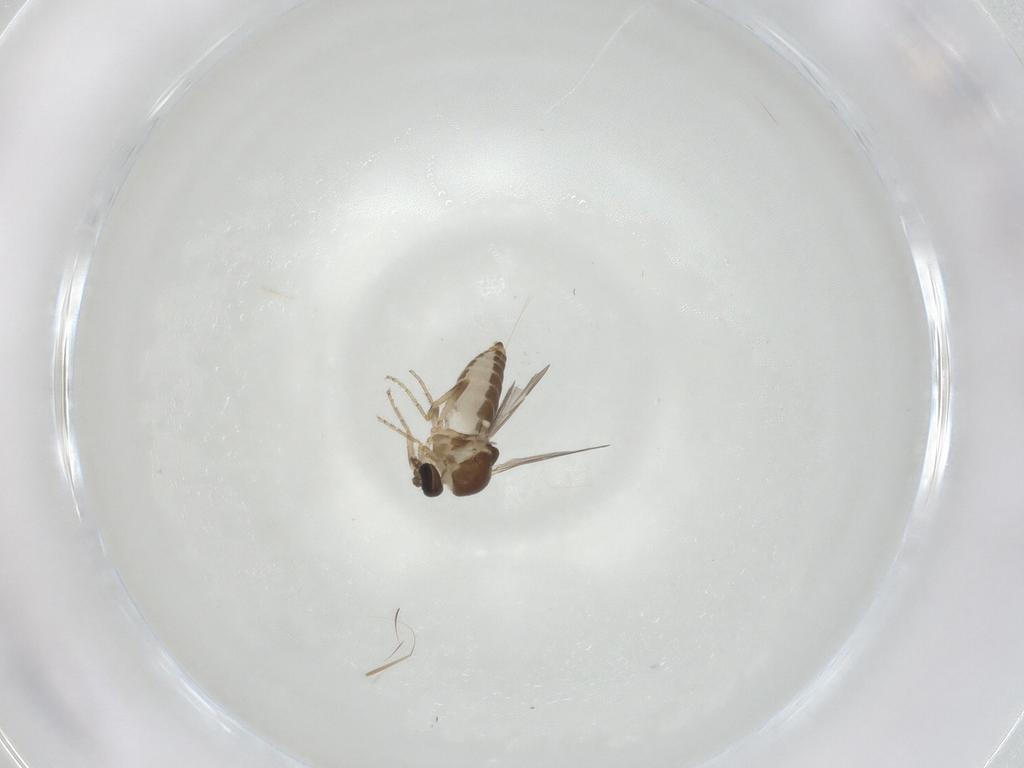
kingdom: Animalia
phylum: Arthropoda
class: Insecta
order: Diptera
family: Ceratopogonidae
